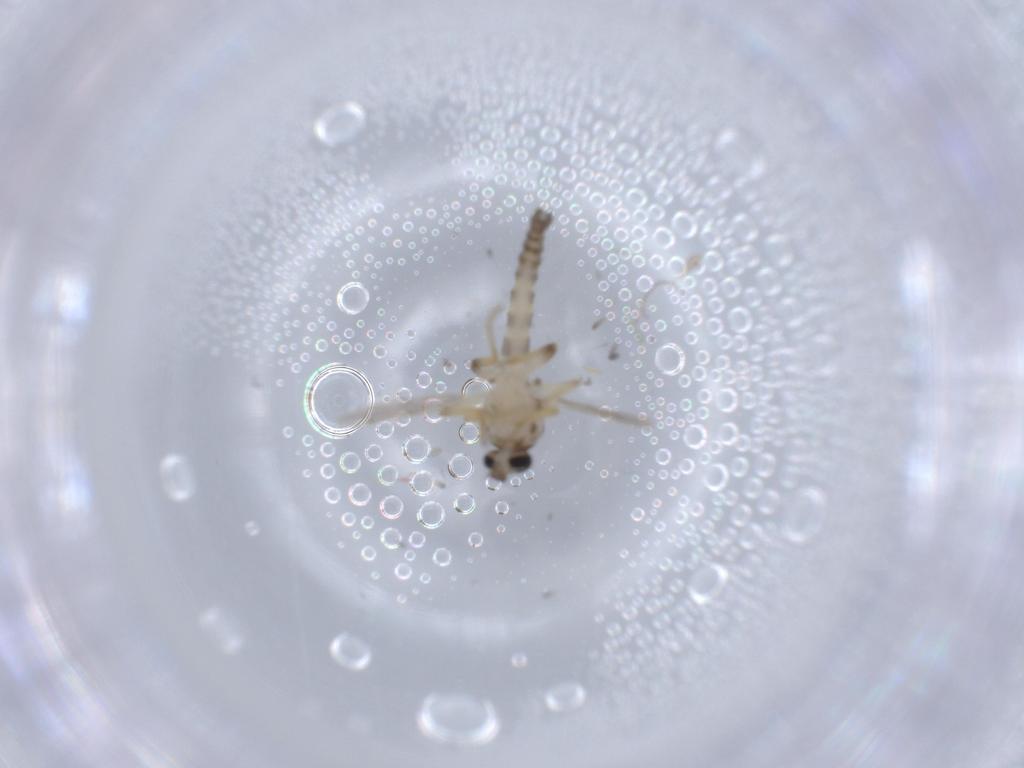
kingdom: Animalia
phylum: Arthropoda
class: Insecta
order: Diptera
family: Ceratopogonidae
